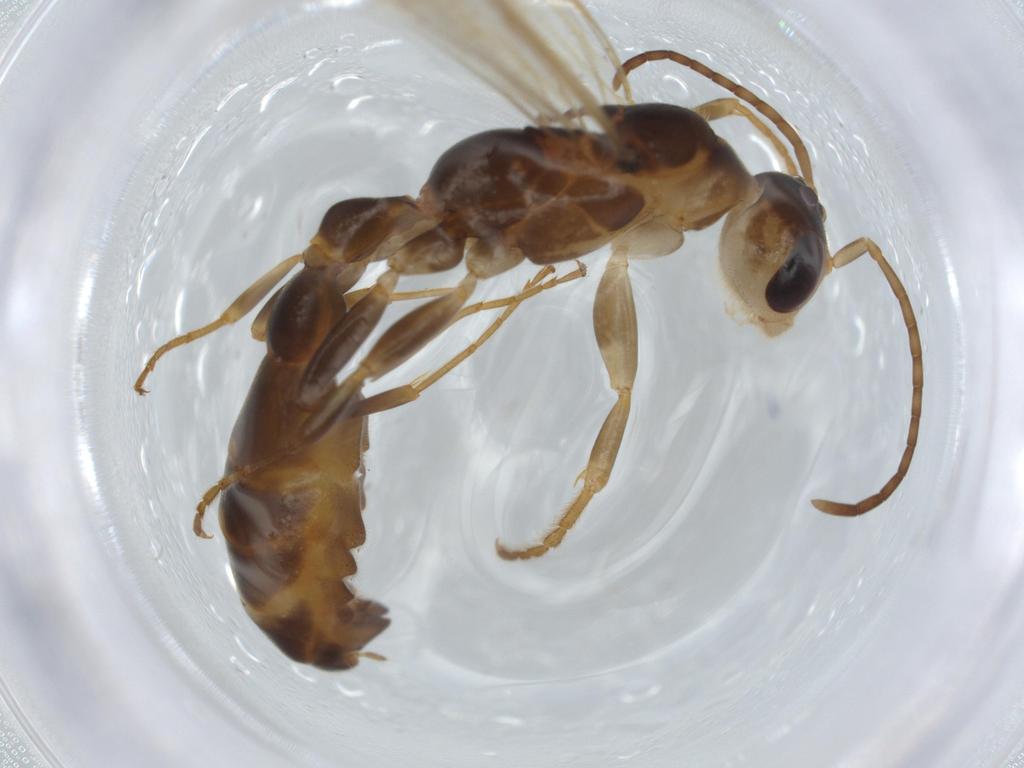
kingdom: Animalia
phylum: Arthropoda
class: Insecta
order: Hymenoptera
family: Formicidae
